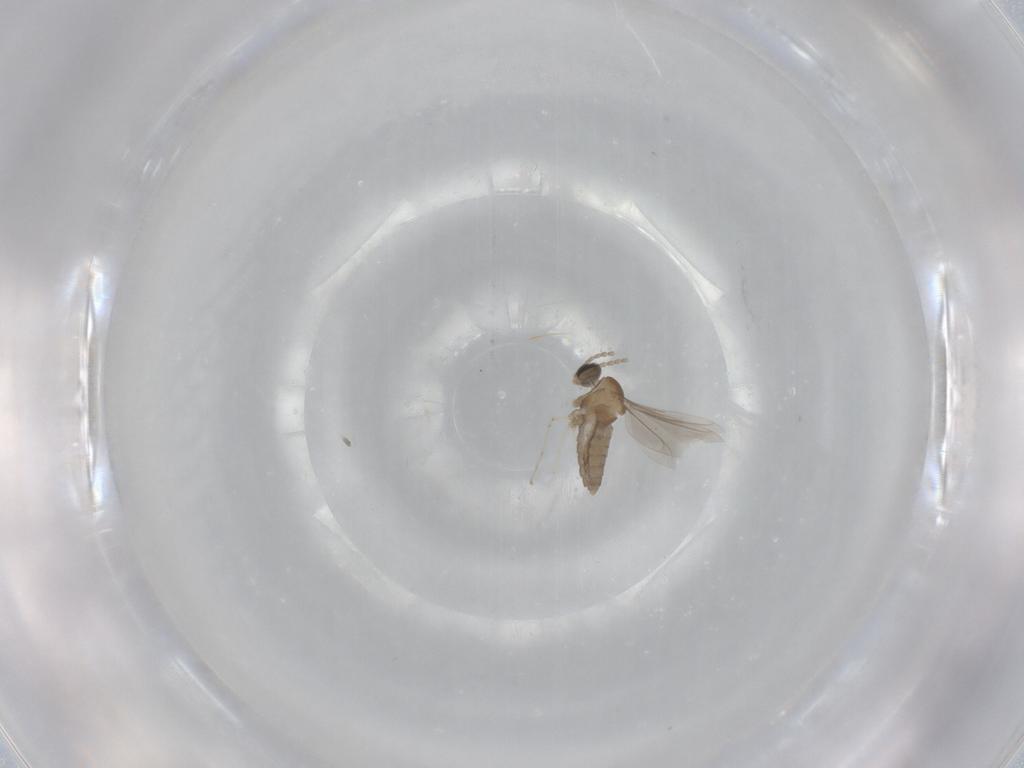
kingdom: Animalia
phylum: Arthropoda
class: Insecta
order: Diptera
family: Cecidomyiidae
